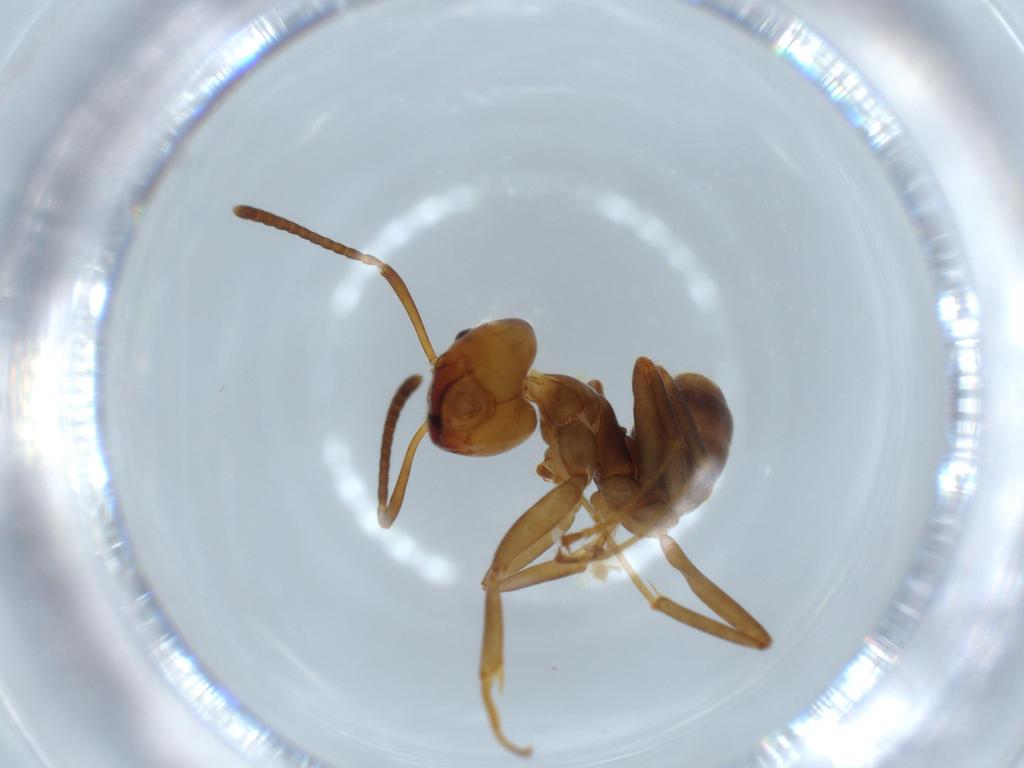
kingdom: Animalia
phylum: Arthropoda
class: Insecta
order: Hymenoptera
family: Formicidae
